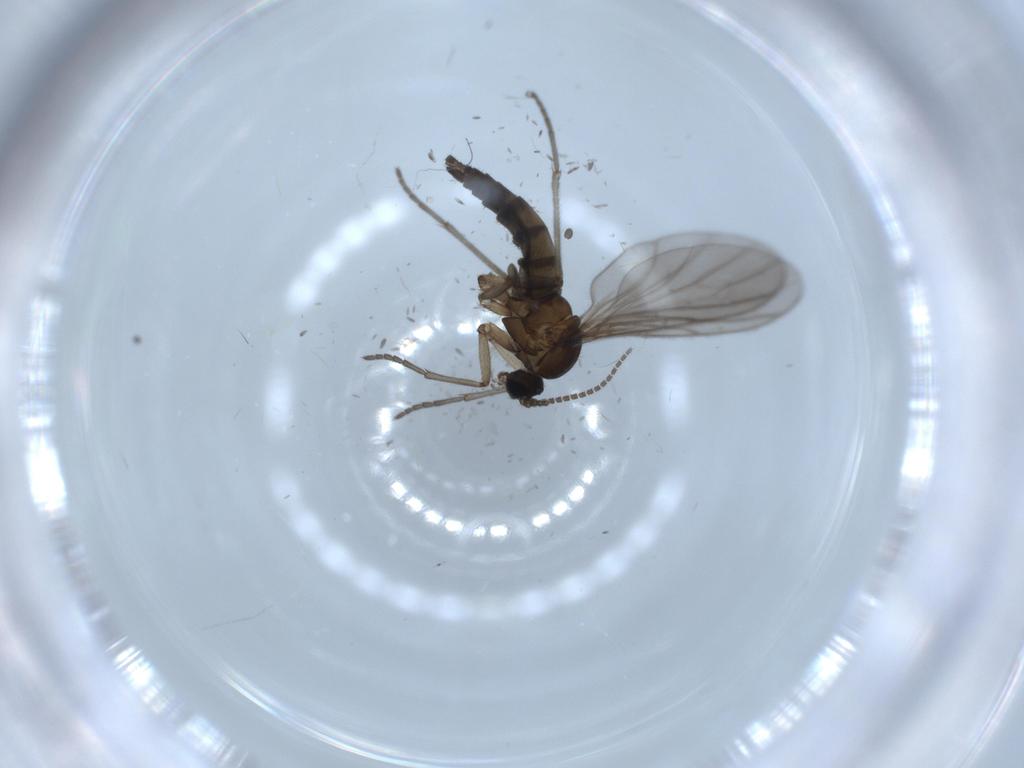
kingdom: Animalia
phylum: Arthropoda
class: Insecta
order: Diptera
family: Sciaridae
